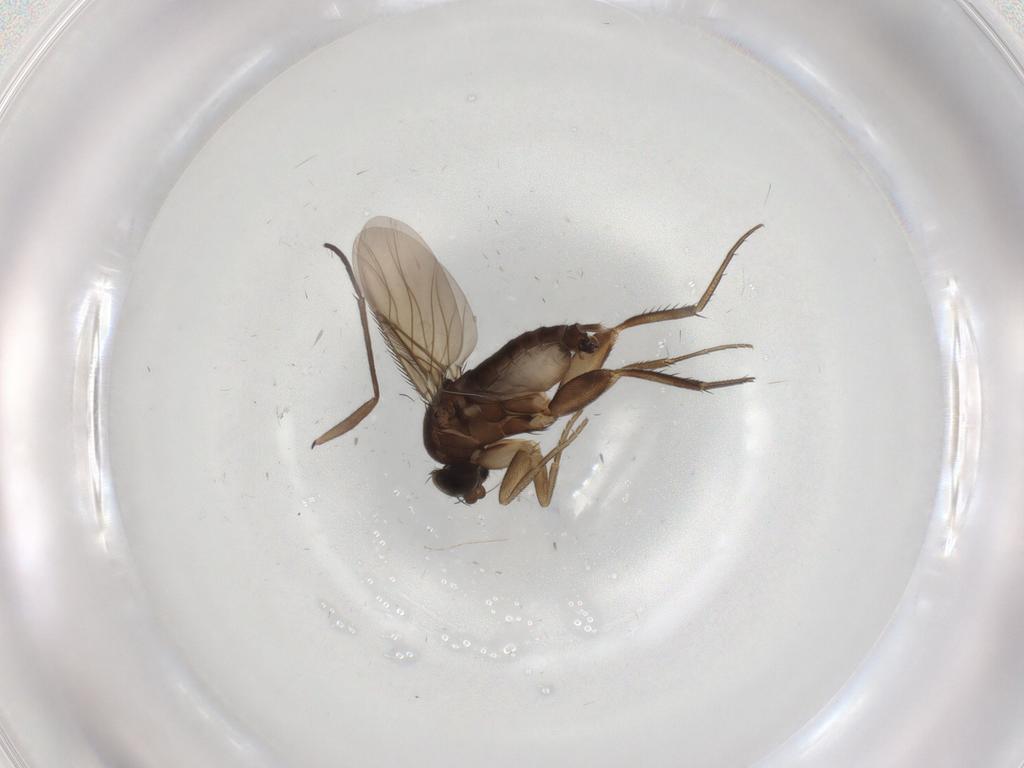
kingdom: Animalia
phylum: Arthropoda
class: Insecta
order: Diptera
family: Phoridae
